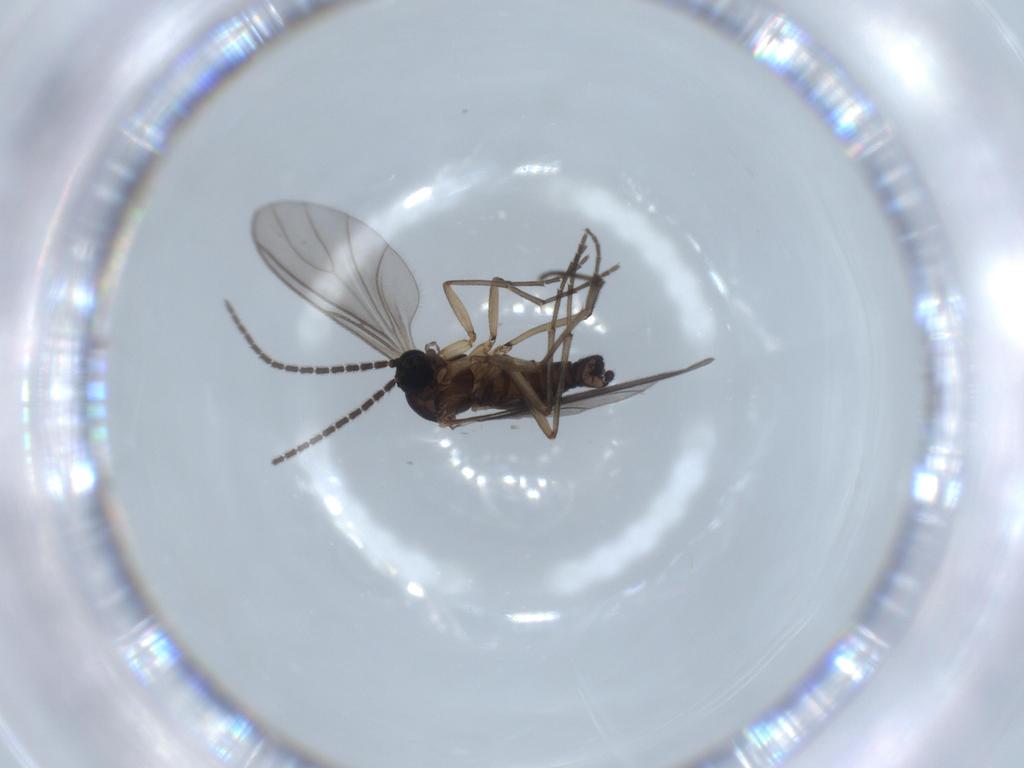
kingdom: Animalia
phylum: Arthropoda
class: Insecta
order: Diptera
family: Sciaridae
